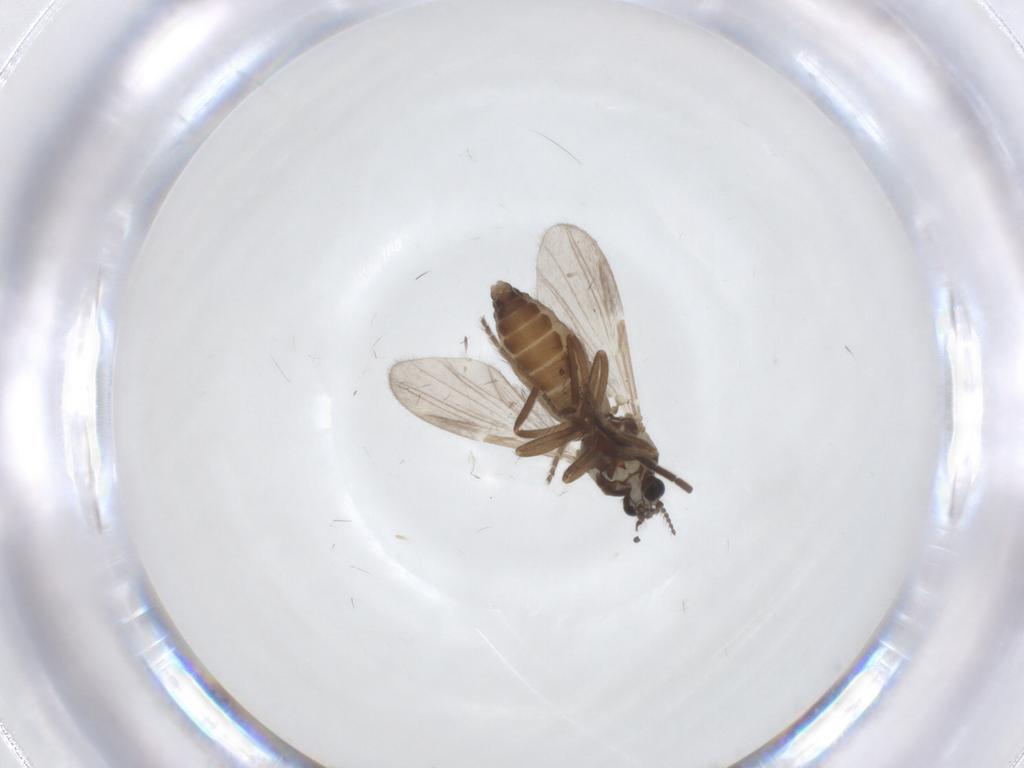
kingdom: Animalia
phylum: Arthropoda
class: Insecta
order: Diptera
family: Ceratopogonidae
